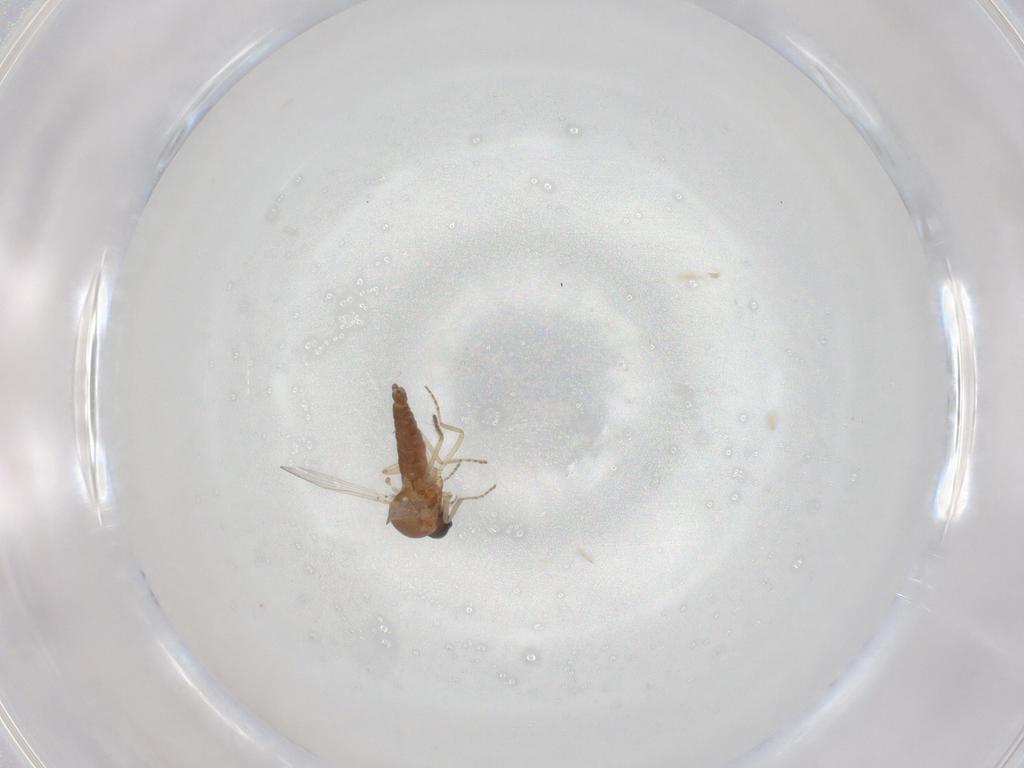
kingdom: Animalia
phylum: Arthropoda
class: Insecta
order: Diptera
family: Ceratopogonidae
